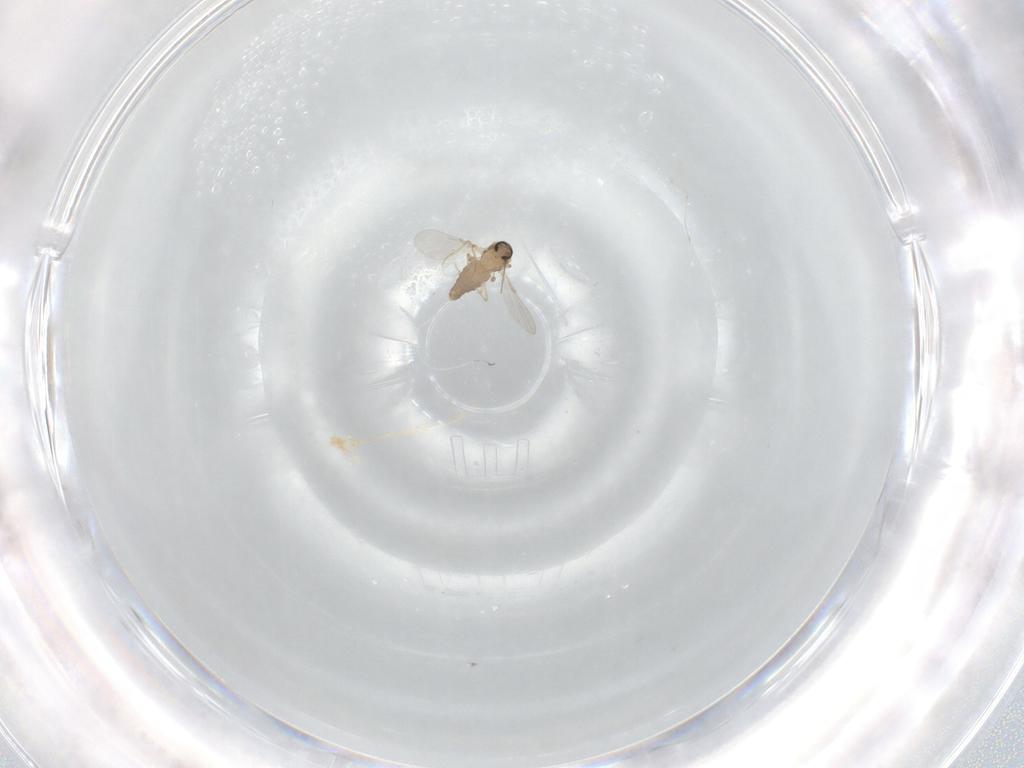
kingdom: Animalia
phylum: Arthropoda
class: Insecta
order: Diptera
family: Ceratopogonidae
